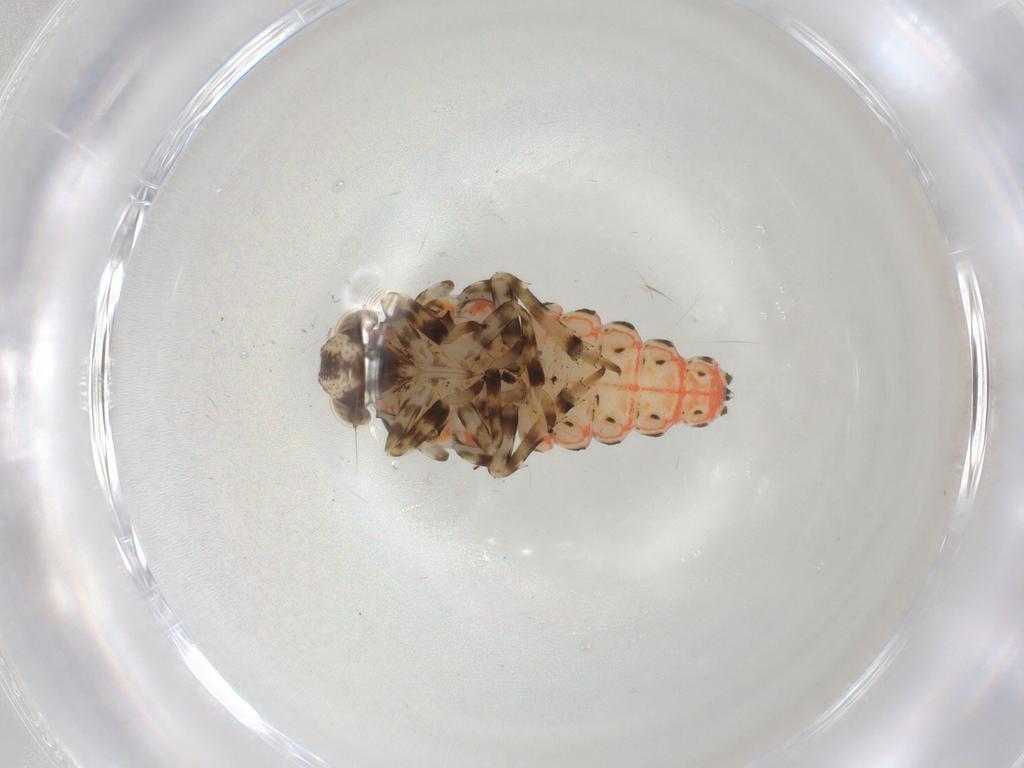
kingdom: Animalia
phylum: Arthropoda
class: Insecta
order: Hemiptera
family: Issidae
